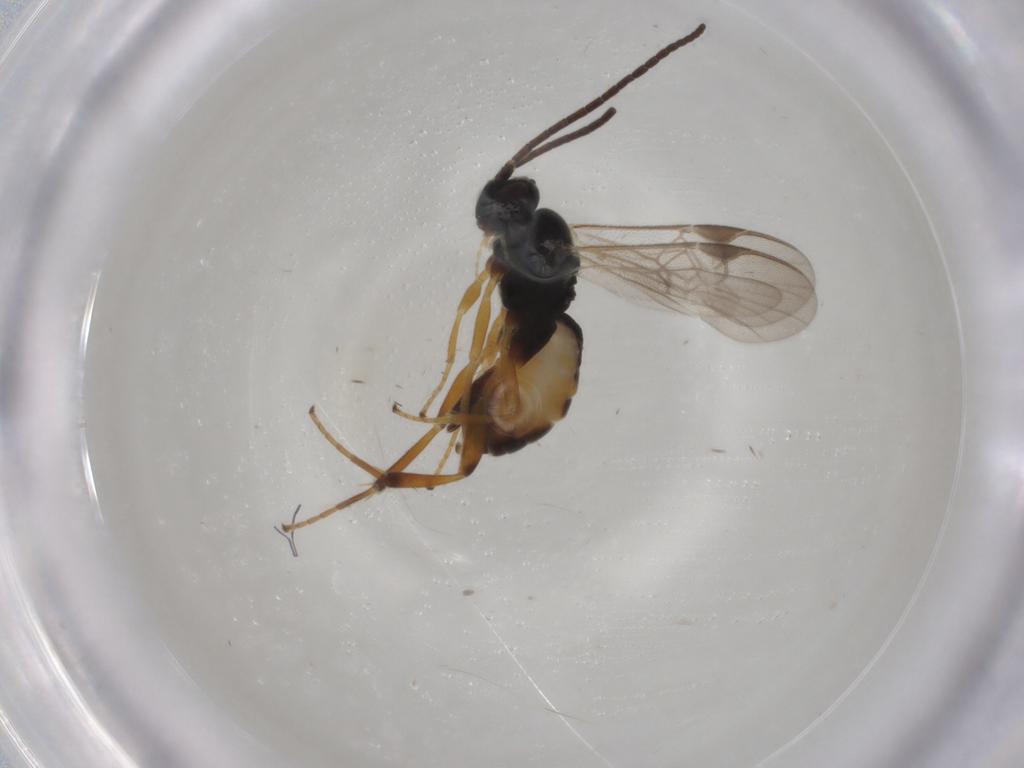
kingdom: Animalia
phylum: Arthropoda
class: Insecta
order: Hymenoptera
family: Braconidae
